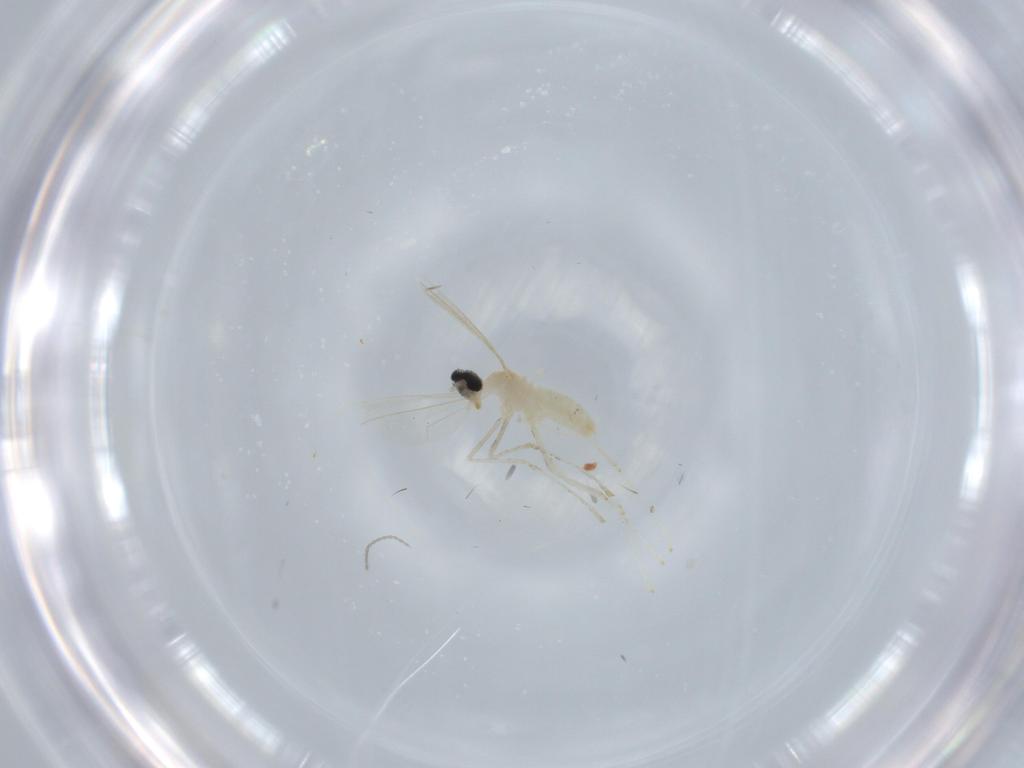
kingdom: Animalia
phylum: Arthropoda
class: Insecta
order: Diptera
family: Cecidomyiidae
